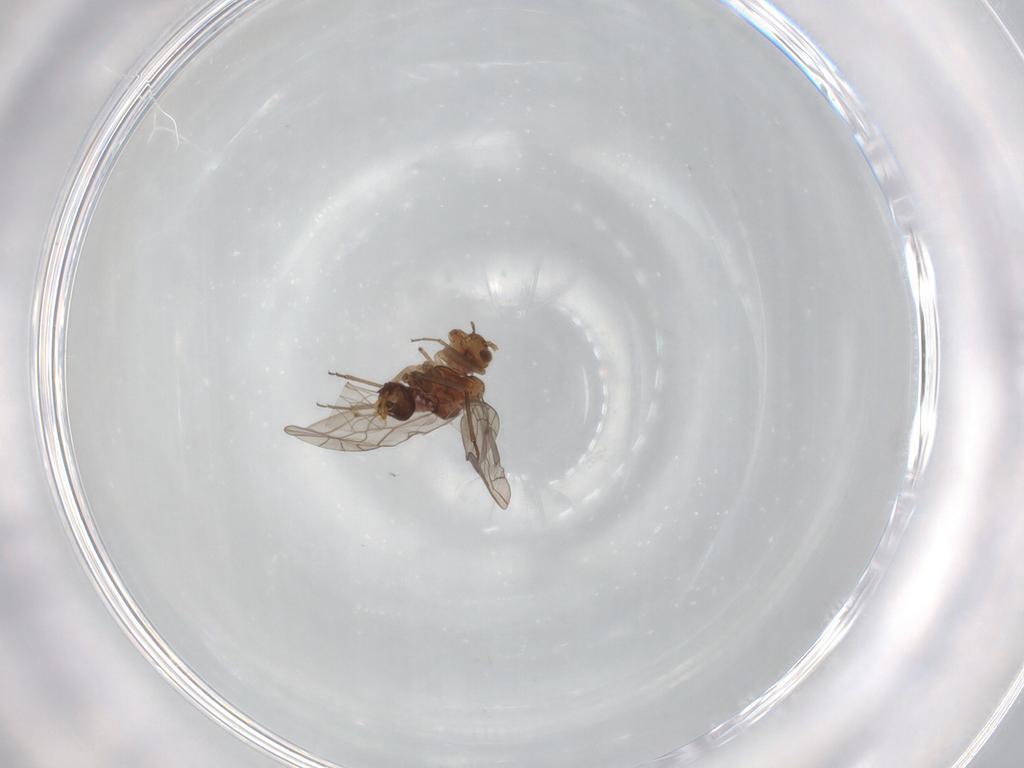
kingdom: Animalia
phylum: Arthropoda
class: Insecta
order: Psocodea
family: Lachesillidae
